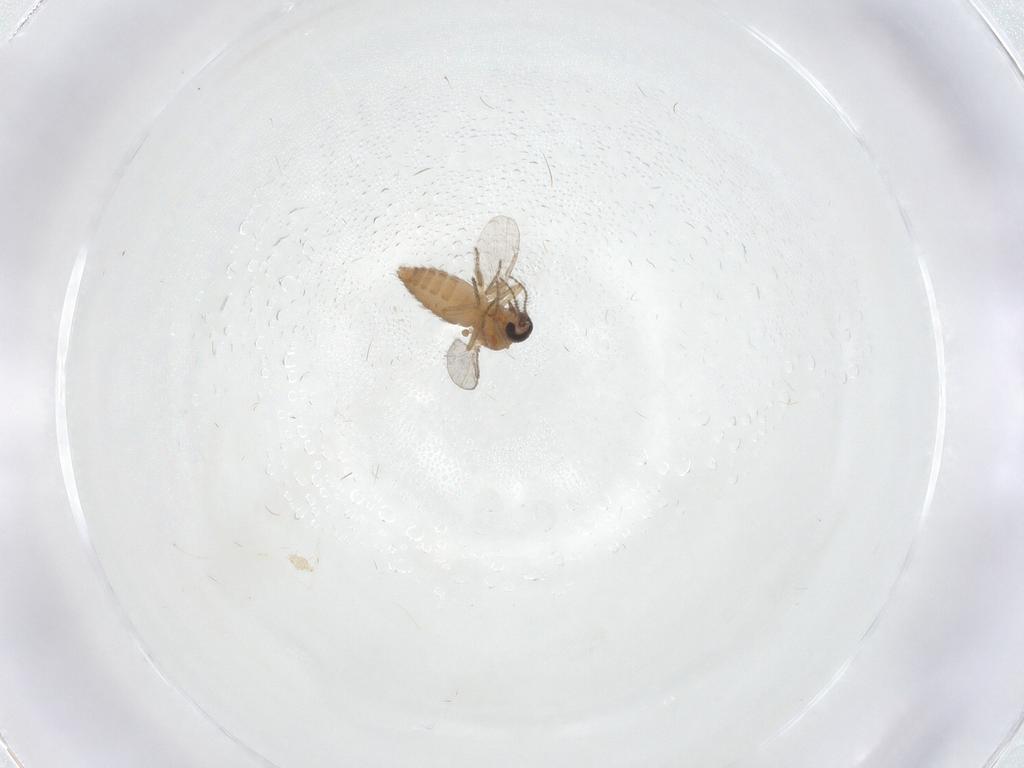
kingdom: Animalia
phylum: Arthropoda
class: Insecta
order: Diptera
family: Ceratopogonidae
